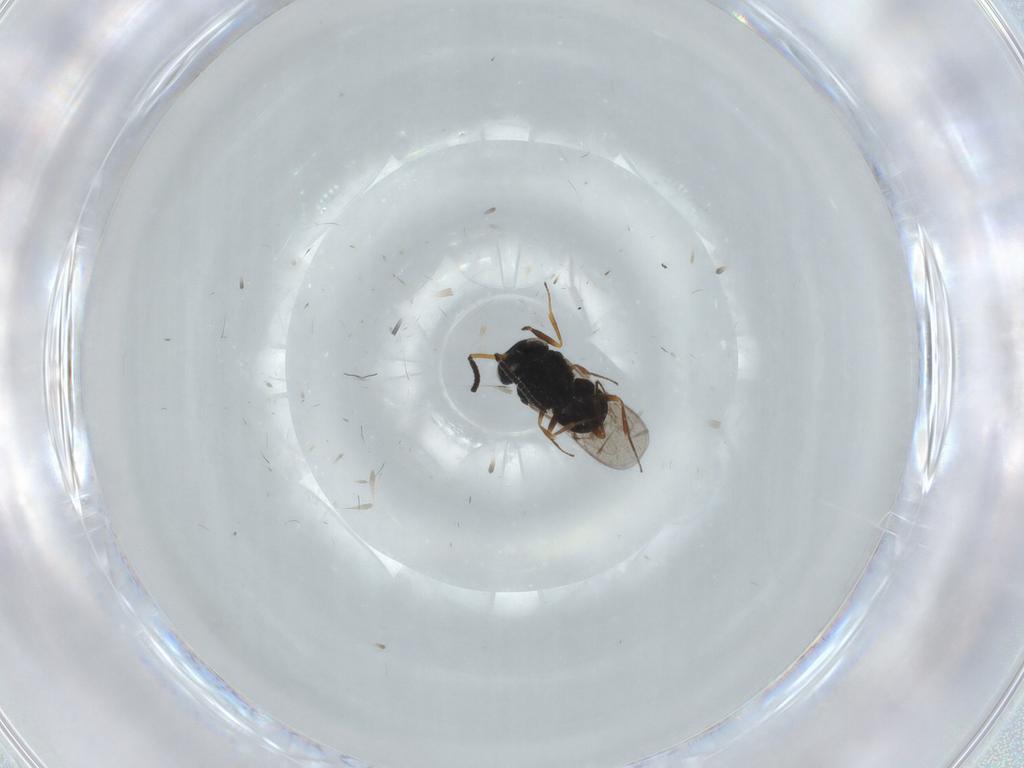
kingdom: Animalia
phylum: Arthropoda
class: Insecta
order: Hymenoptera
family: Scelionidae
